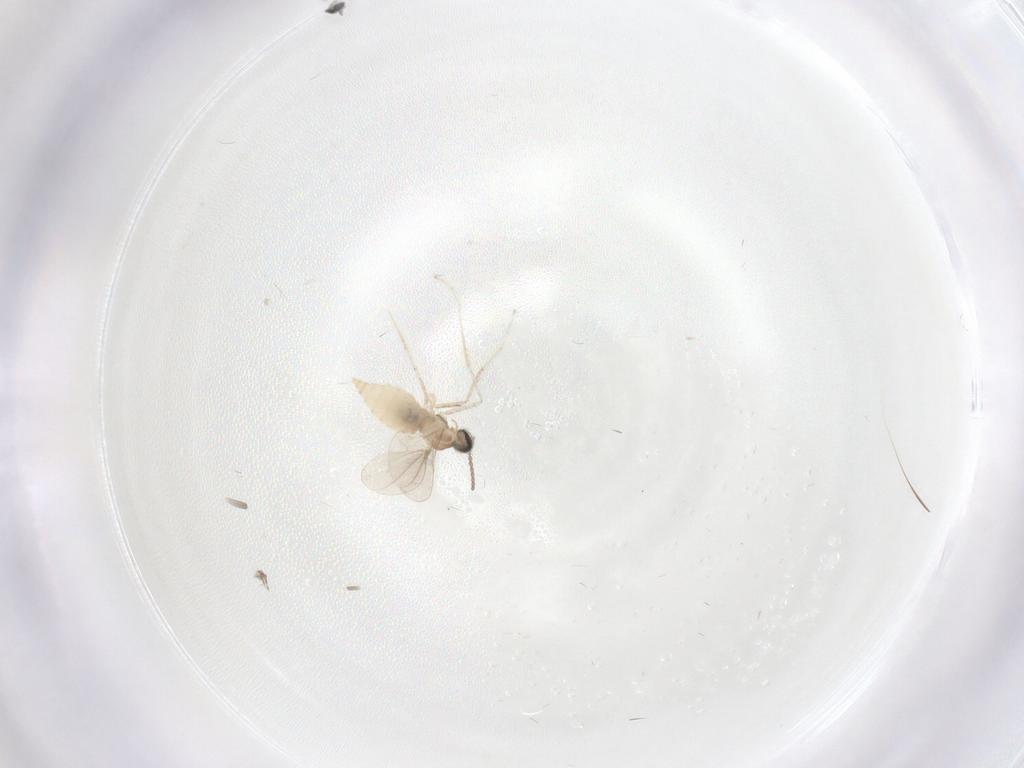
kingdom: Animalia
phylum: Arthropoda
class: Insecta
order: Diptera
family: Cecidomyiidae
